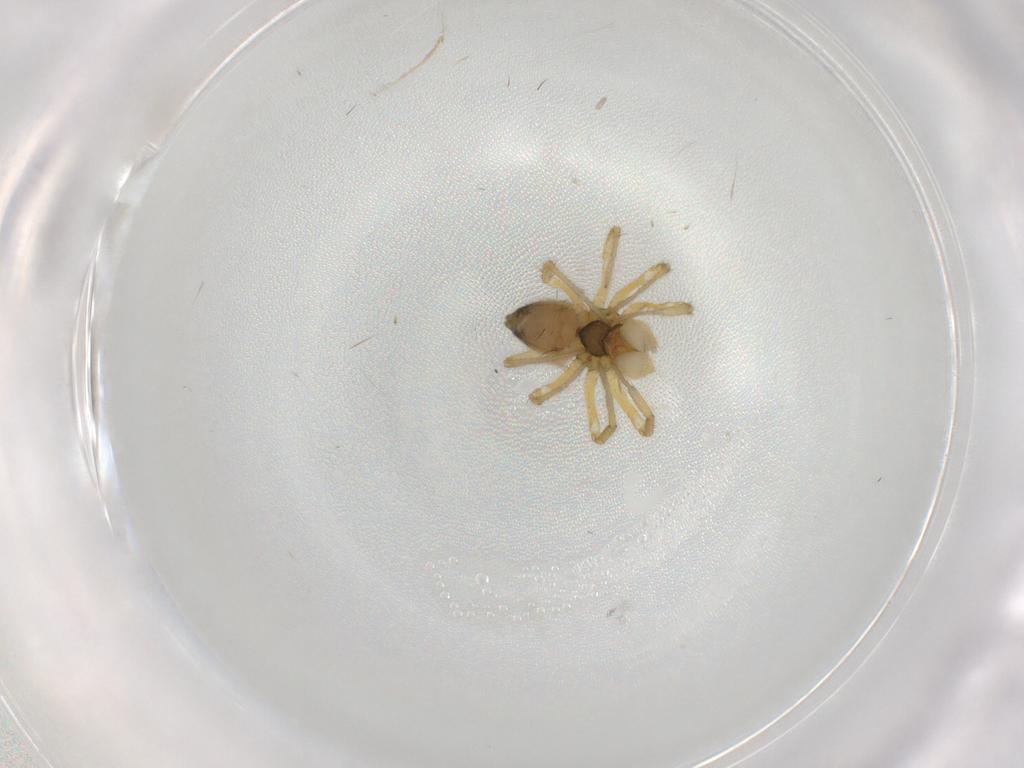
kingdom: Animalia
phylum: Arthropoda
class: Arachnida
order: Araneae
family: Linyphiidae
